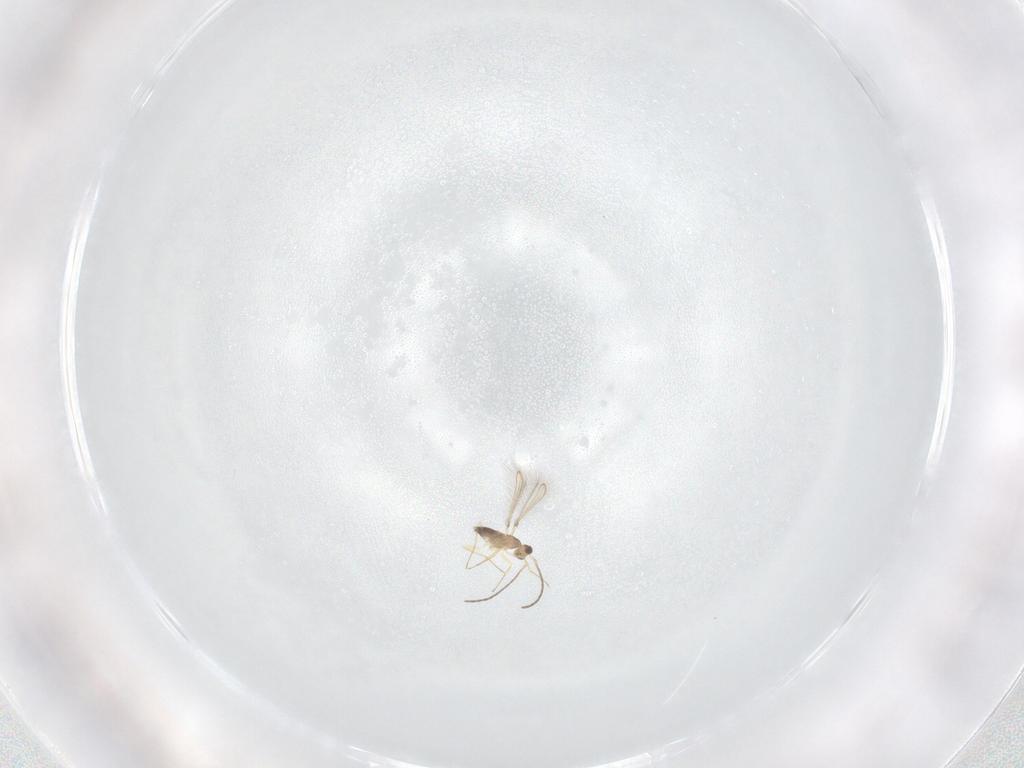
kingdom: Animalia
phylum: Arthropoda
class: Insecta
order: Hymenoptera
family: Mymaridae
